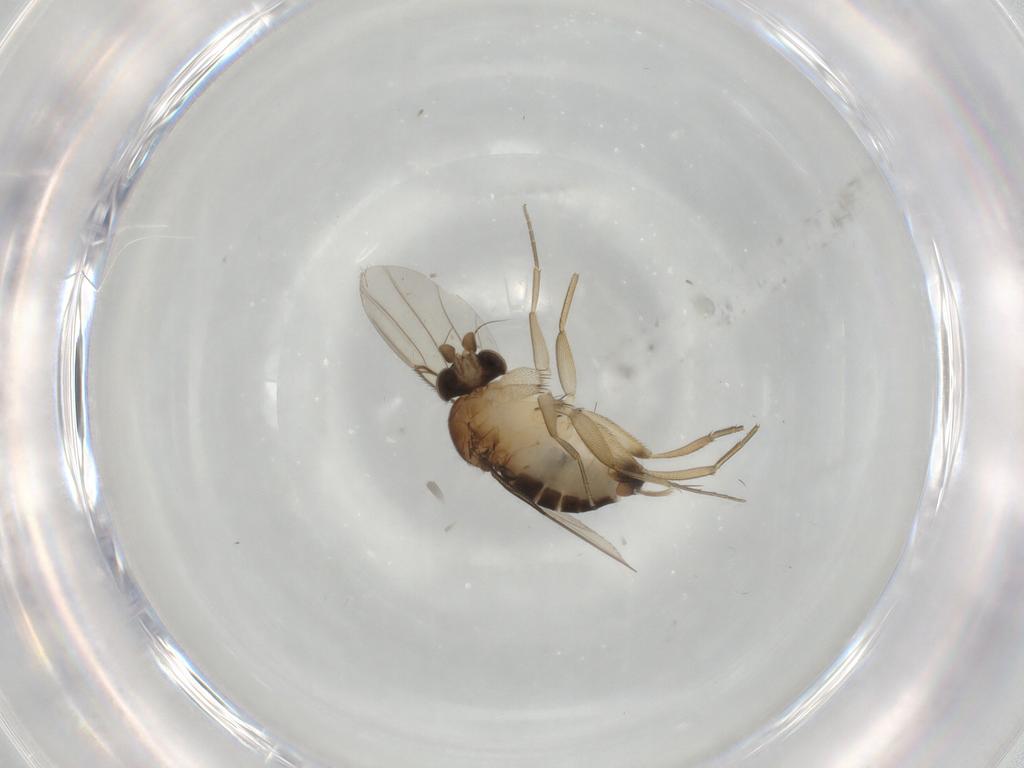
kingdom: Animalia
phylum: Arthropoda
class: Insecta
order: Diptera
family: Phoridae
